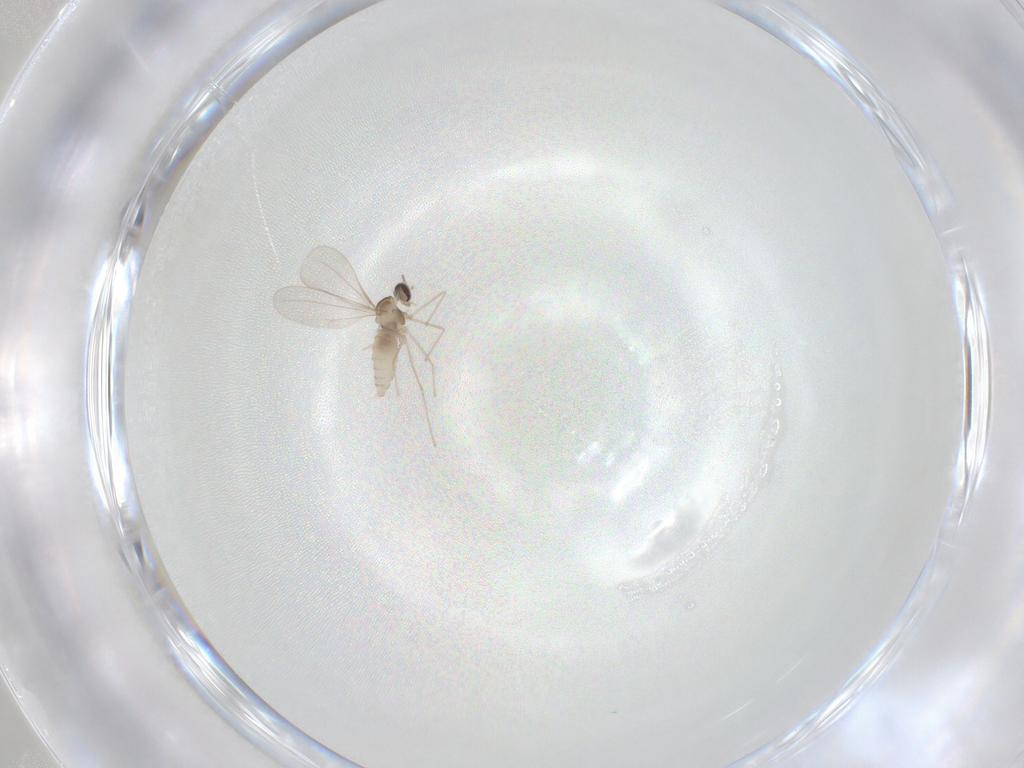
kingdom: Animalia
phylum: Arthropoda
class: Insecta
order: Diptera
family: Cecidomyiidae
